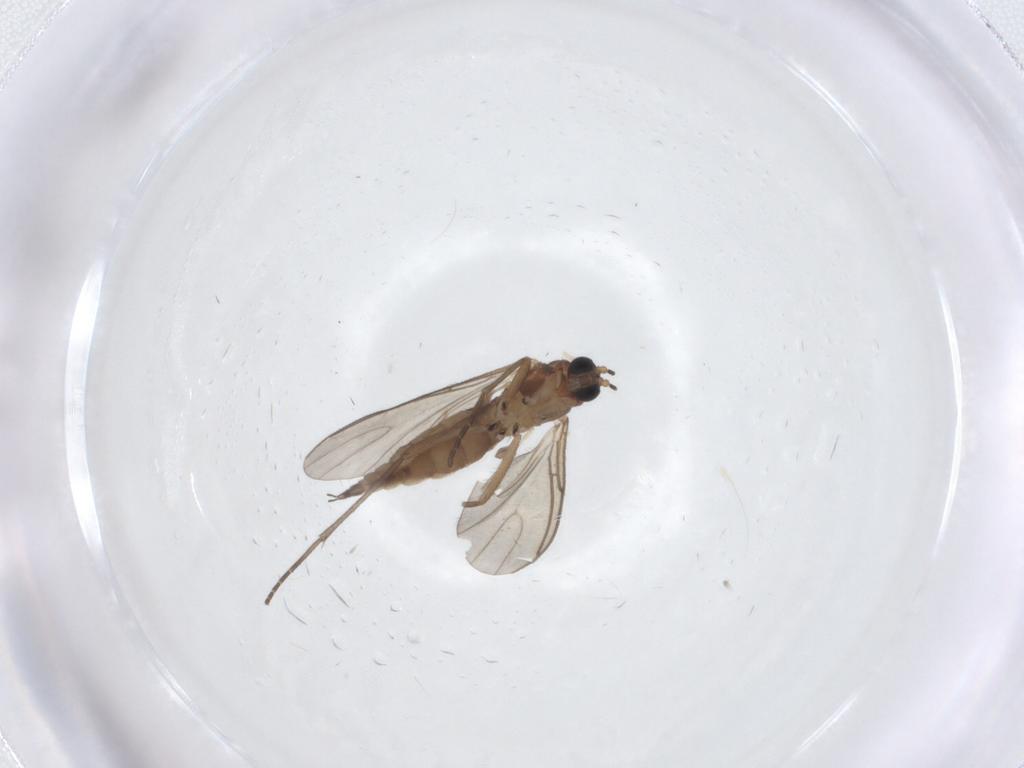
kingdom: Animalia
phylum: Arthropoda
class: Insecta
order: Diptera
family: Sciaridae
